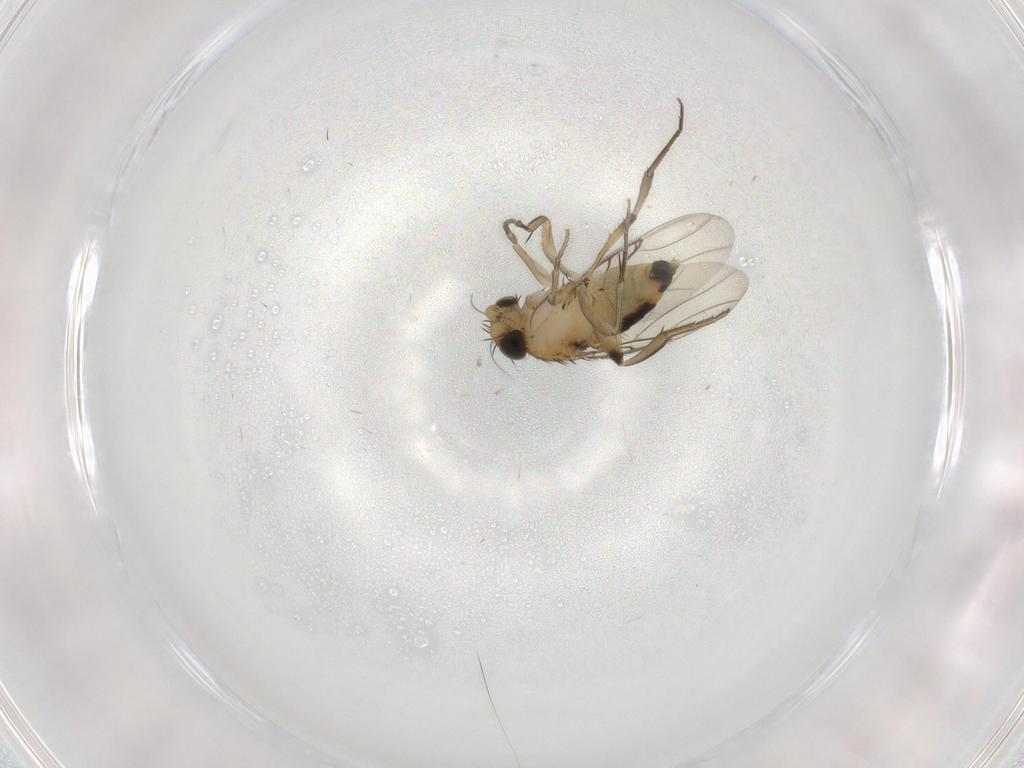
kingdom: Animalia
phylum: Arthropoda
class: Insecta
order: Diptera
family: Phoridae
